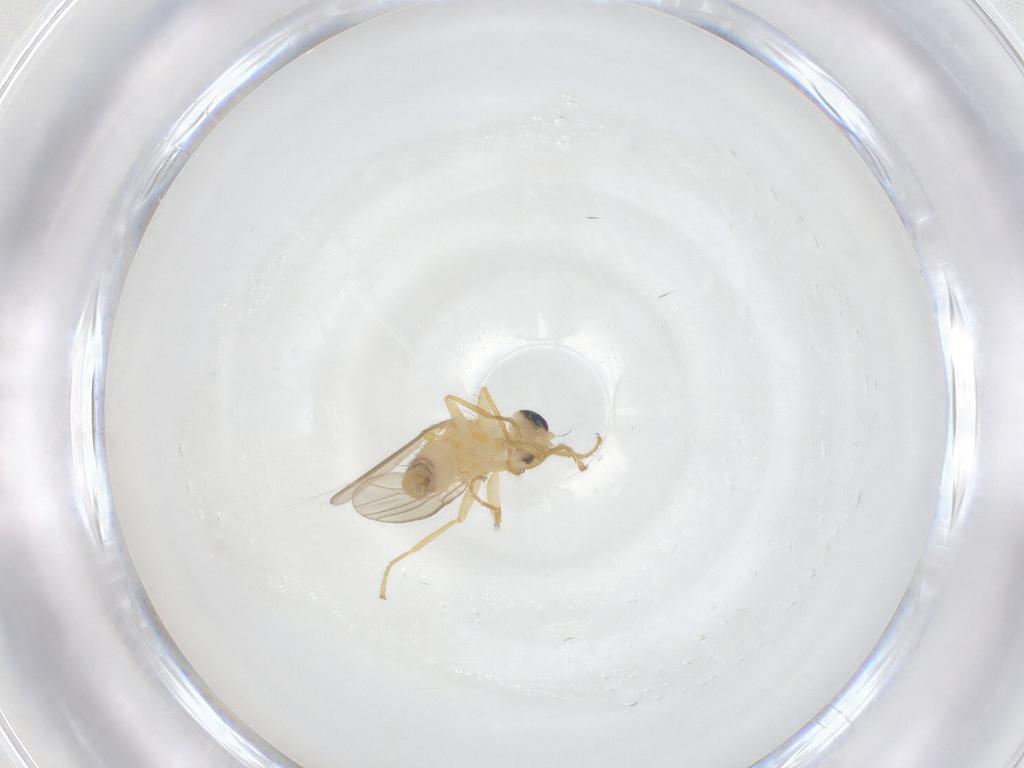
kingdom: Animalia
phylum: Arthropoda
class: Insecta
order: Diptera
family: Chyromyidae
